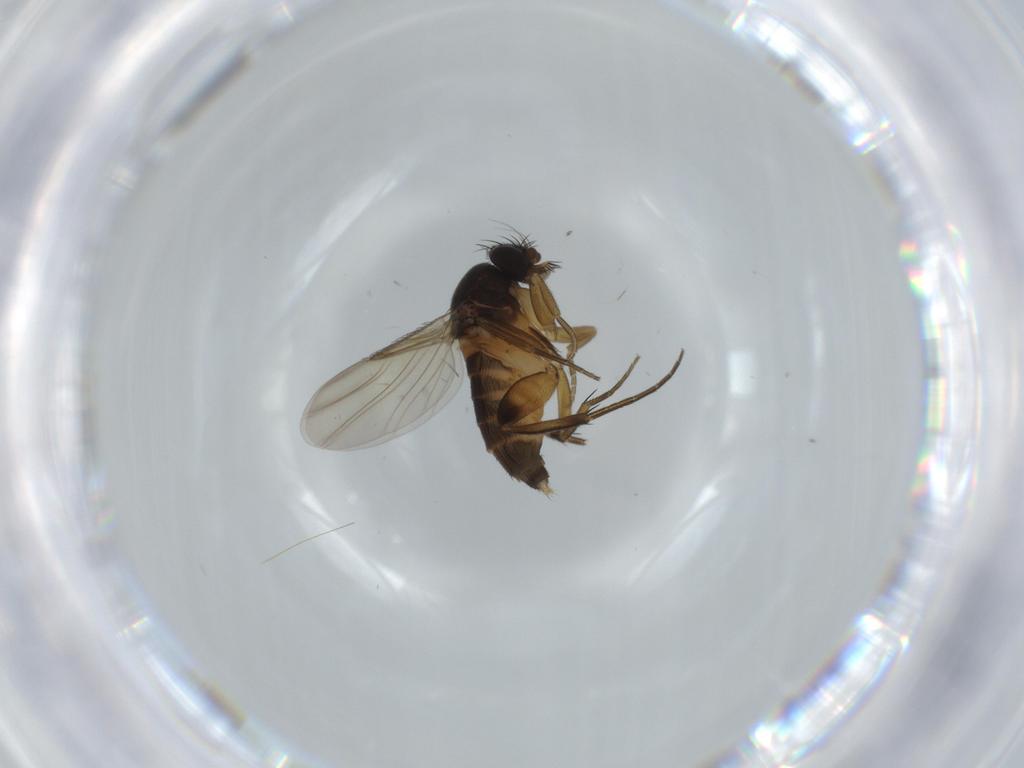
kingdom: Animalia
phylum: Arthropoda
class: Insecta
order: Diptera
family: Phoridae
